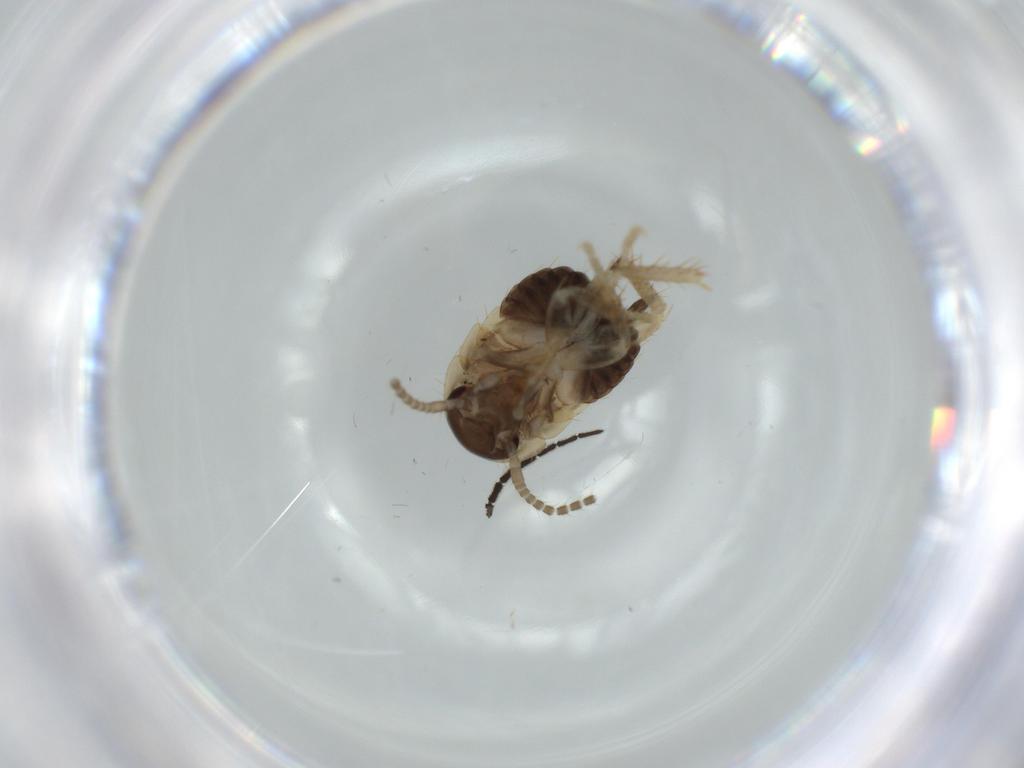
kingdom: Animalia
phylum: Arthropoda
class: Insecta
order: Blattodea
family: Ectobiidae
